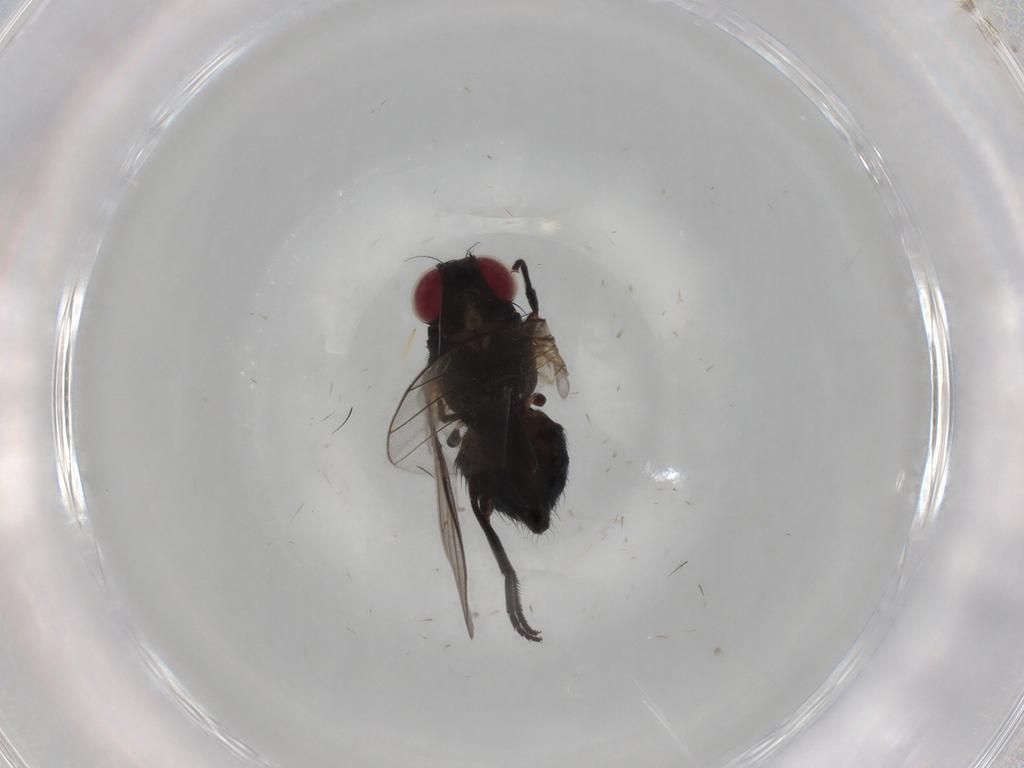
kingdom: Animalia
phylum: Arthropoda
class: Insecta
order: Diptera
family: Agromyzidae
